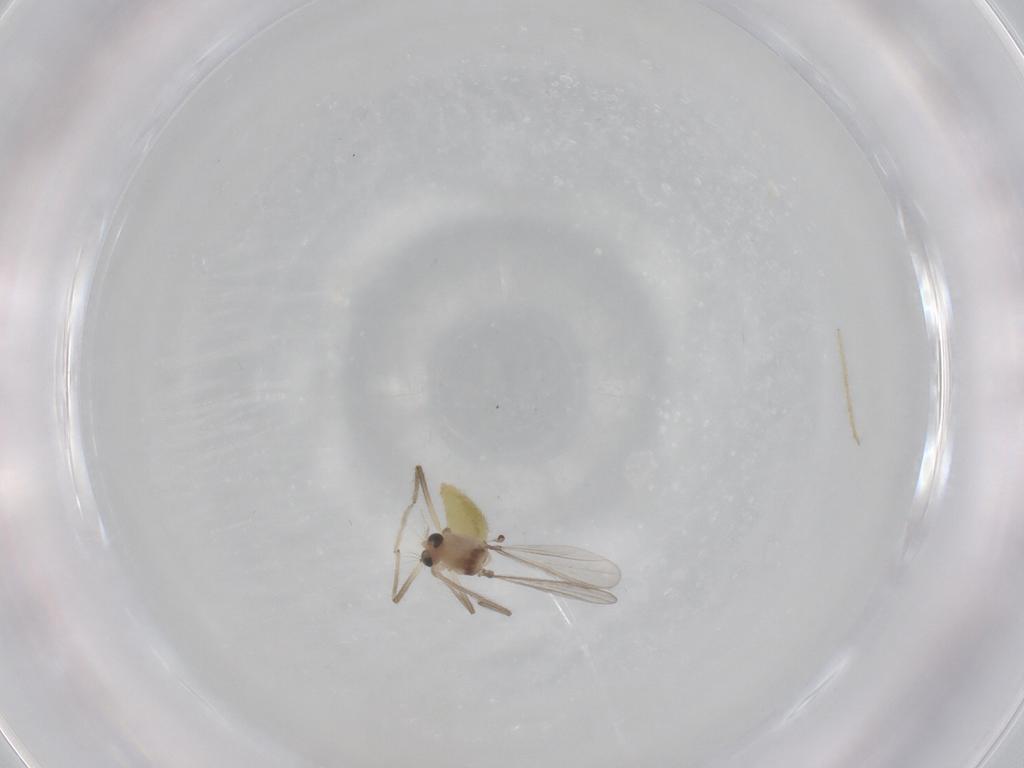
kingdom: Animalia
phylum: Arthropoda
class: Insecta
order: Diptera
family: Chironomidae
